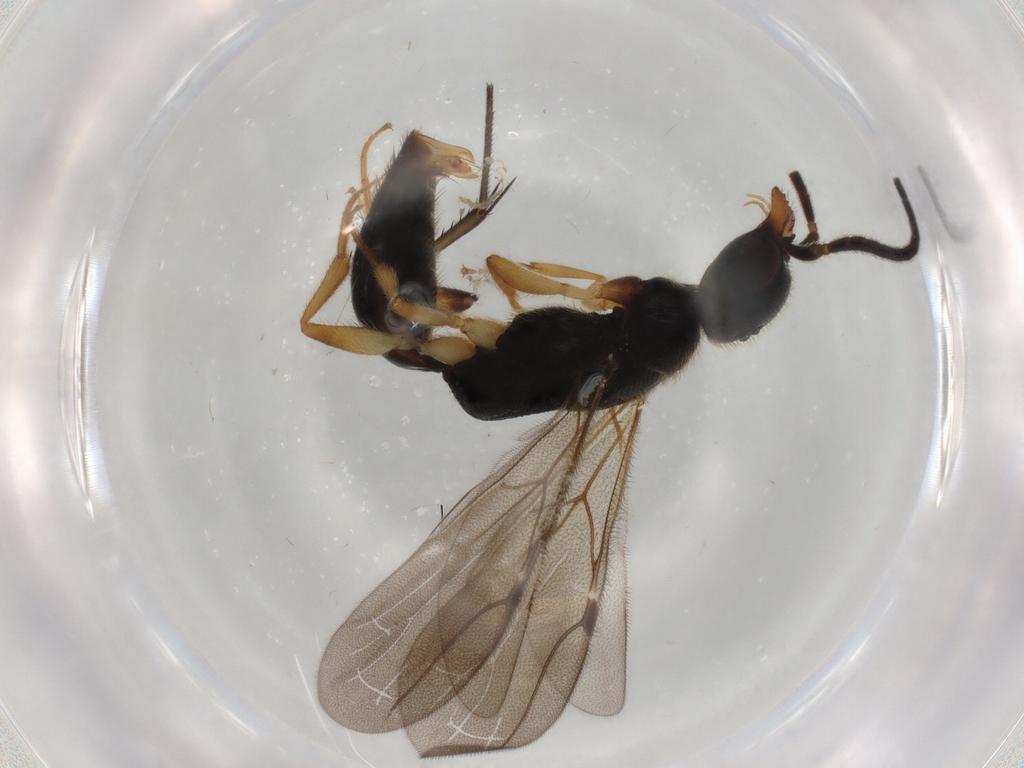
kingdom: Animalia
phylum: Arthropoda
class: Insecta
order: Hymenoptera
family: Bethylidae
